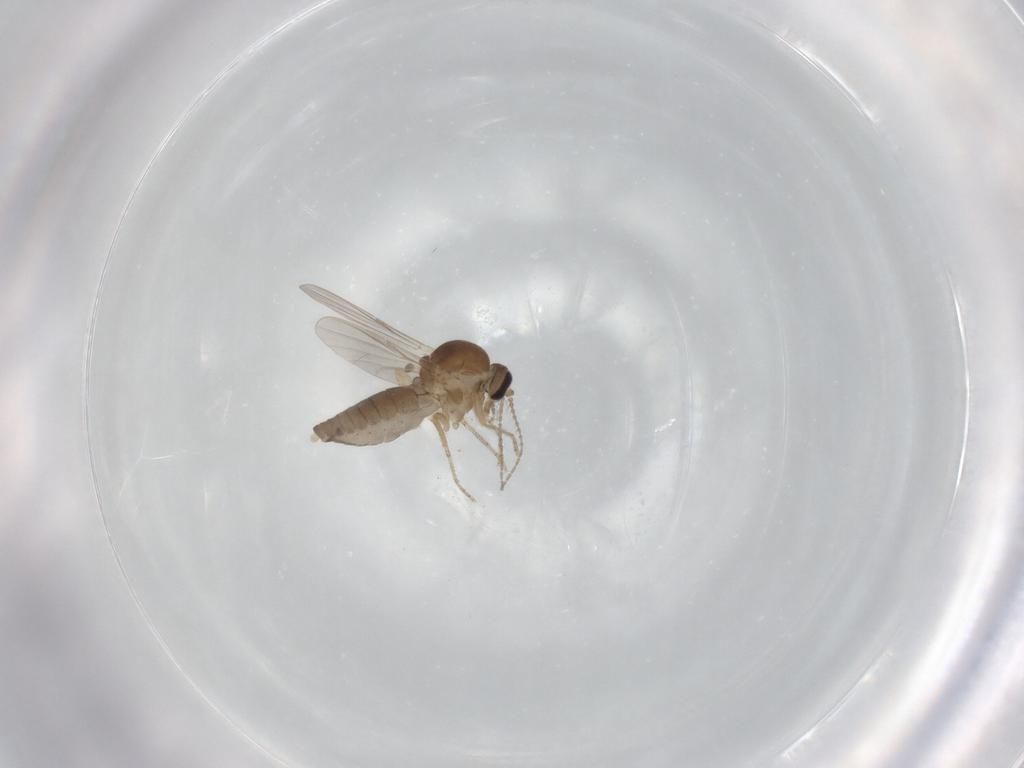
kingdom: Animalia
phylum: Arthropoda
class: Insecta
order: Diptera
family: Ceratopogonidae
